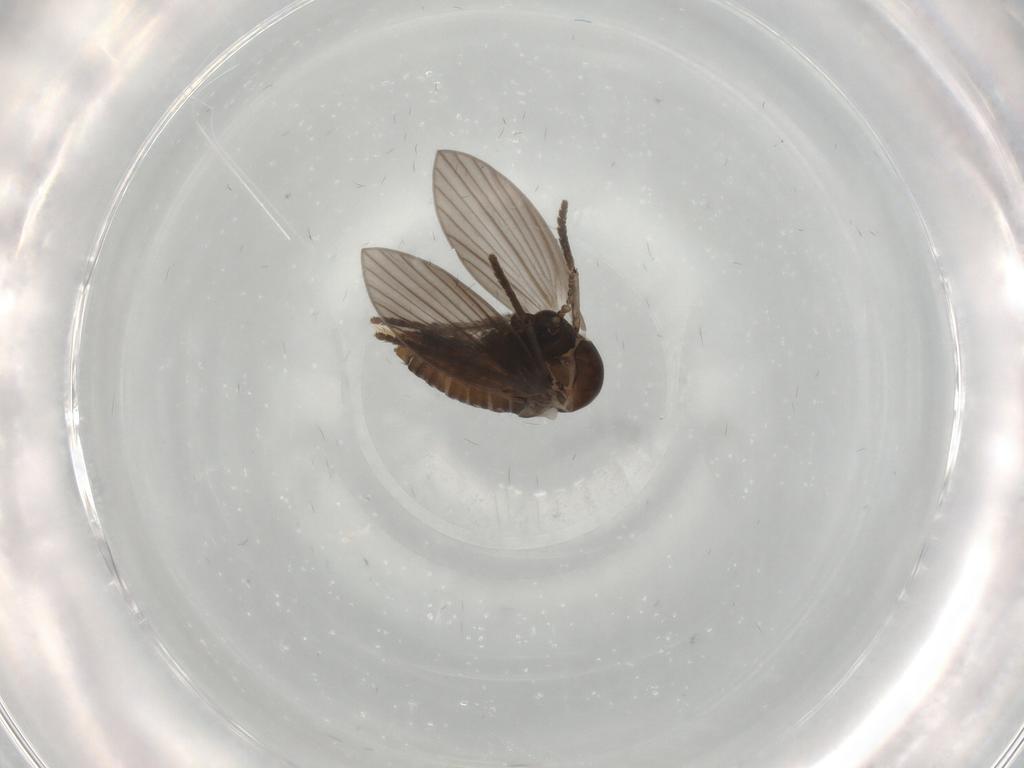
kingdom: Animalia
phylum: Arthropoda
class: Insecta
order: Diptera
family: Psychodidae
